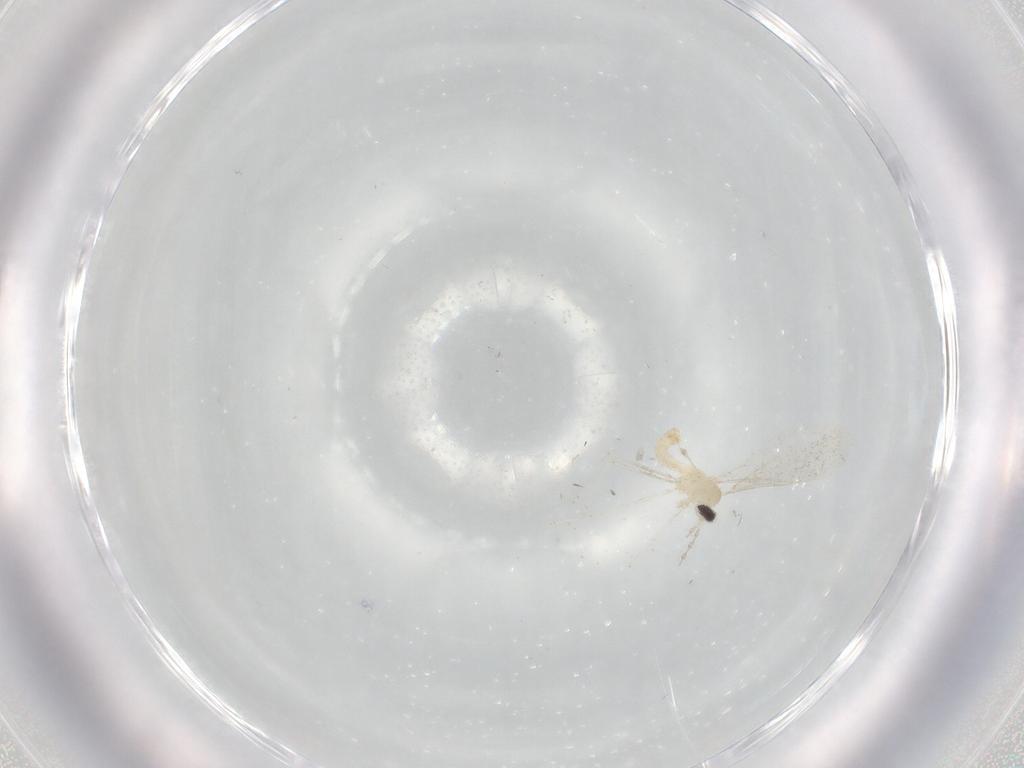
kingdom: Animalia
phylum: Arthropoda
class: Insecta
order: Diptera
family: Cecidomyiidae
